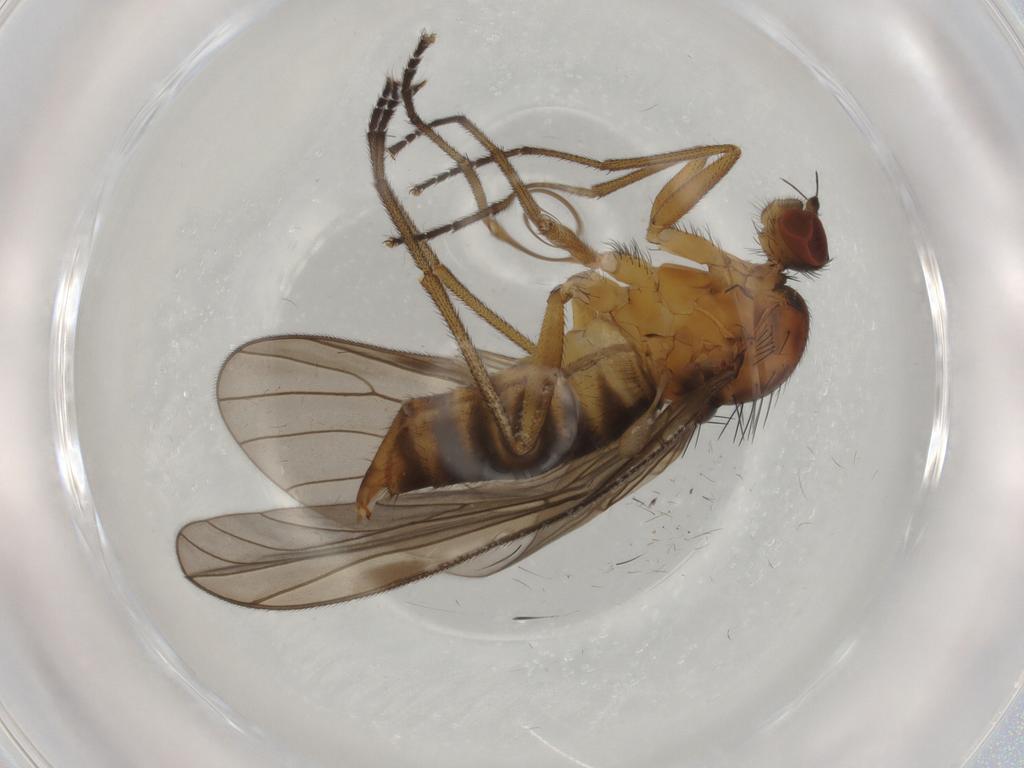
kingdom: Animalia
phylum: Arthropoda
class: Insecta
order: Diptera
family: Brachystomatidae
